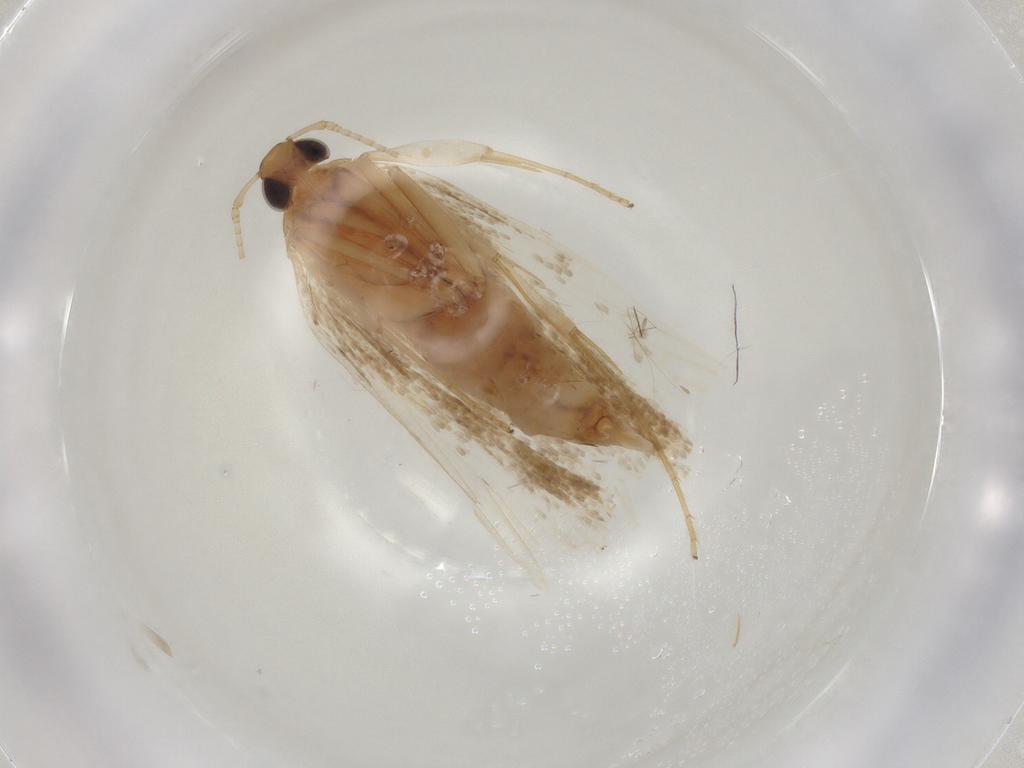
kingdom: Animalia
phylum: Arthropoda
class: Insecta
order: Lepidoptera
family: Lecithoceridae
